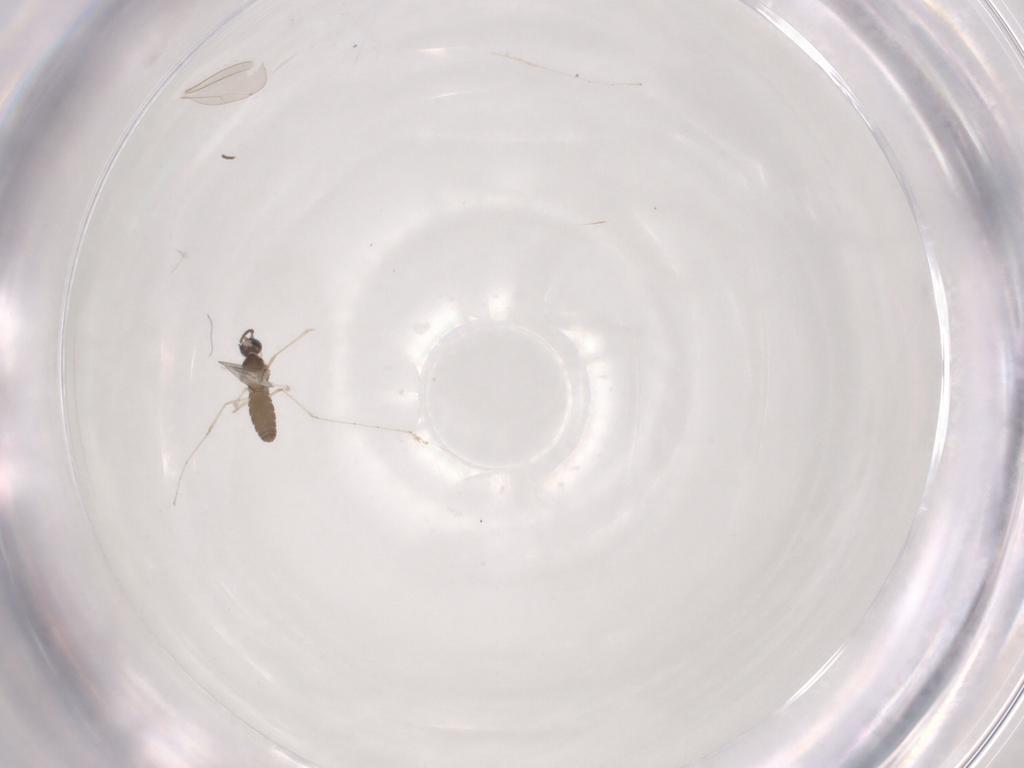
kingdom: Animalia
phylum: Arthropoda
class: Insecta
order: Diptera
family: Cecidomyiidae
